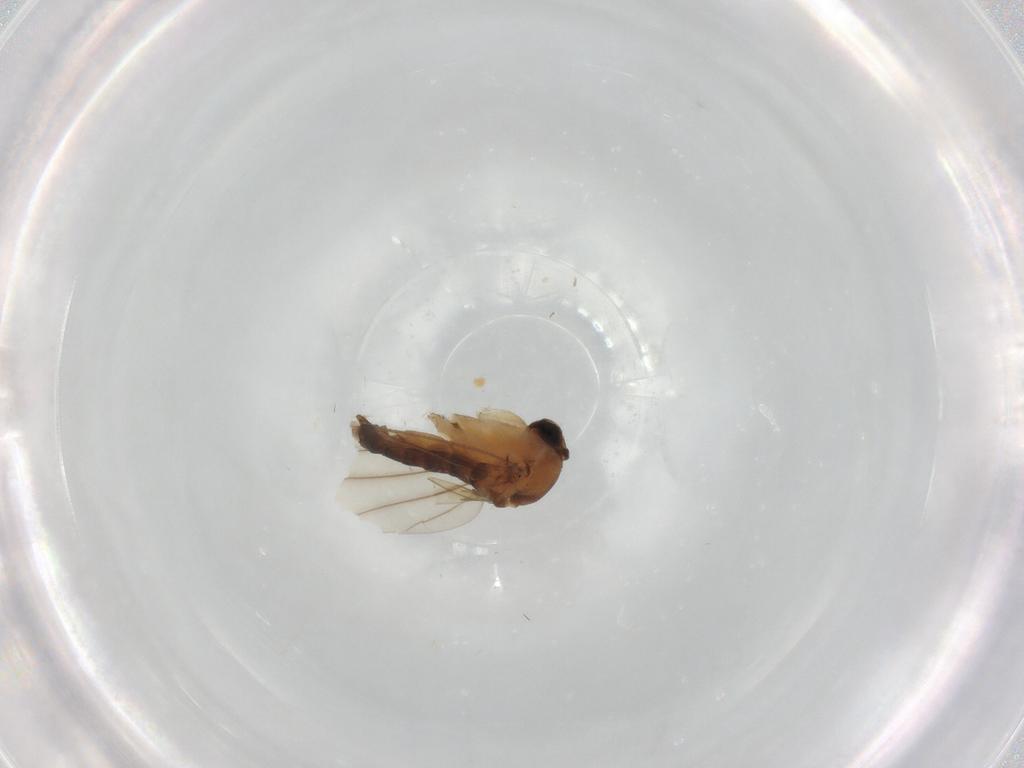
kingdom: Animalia
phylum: Arthropoda
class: Insecta
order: Diptera
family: Phoridae
